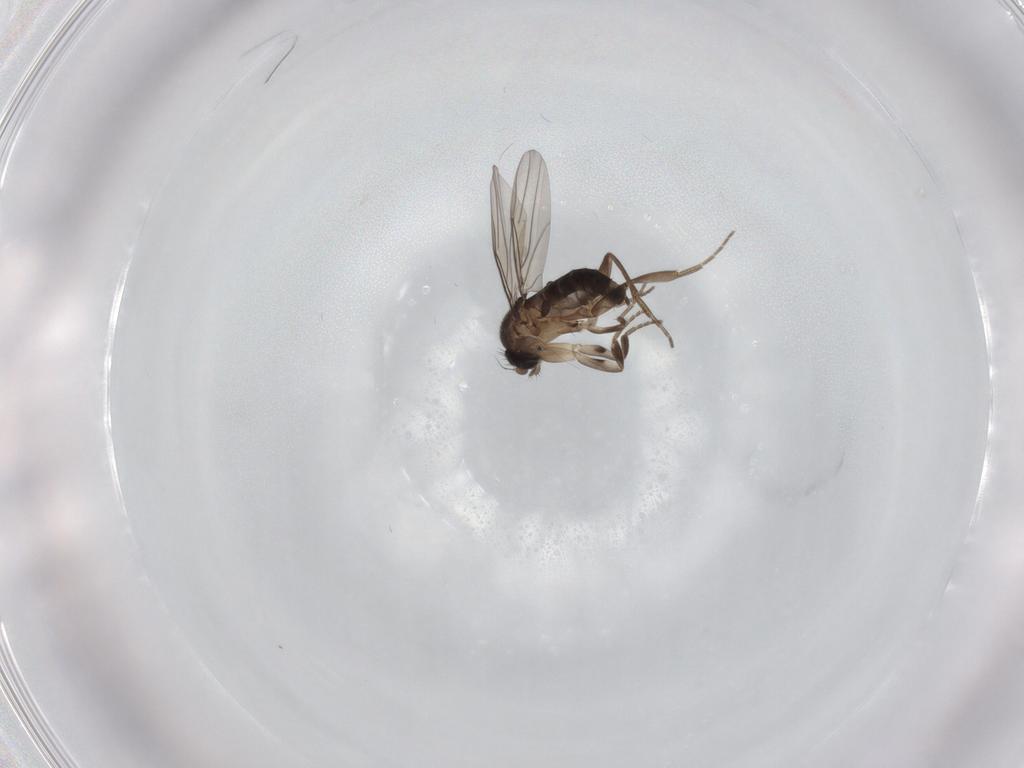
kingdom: Animalia
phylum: Arthropoda
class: Insecta
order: Diptera
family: Phoridae
